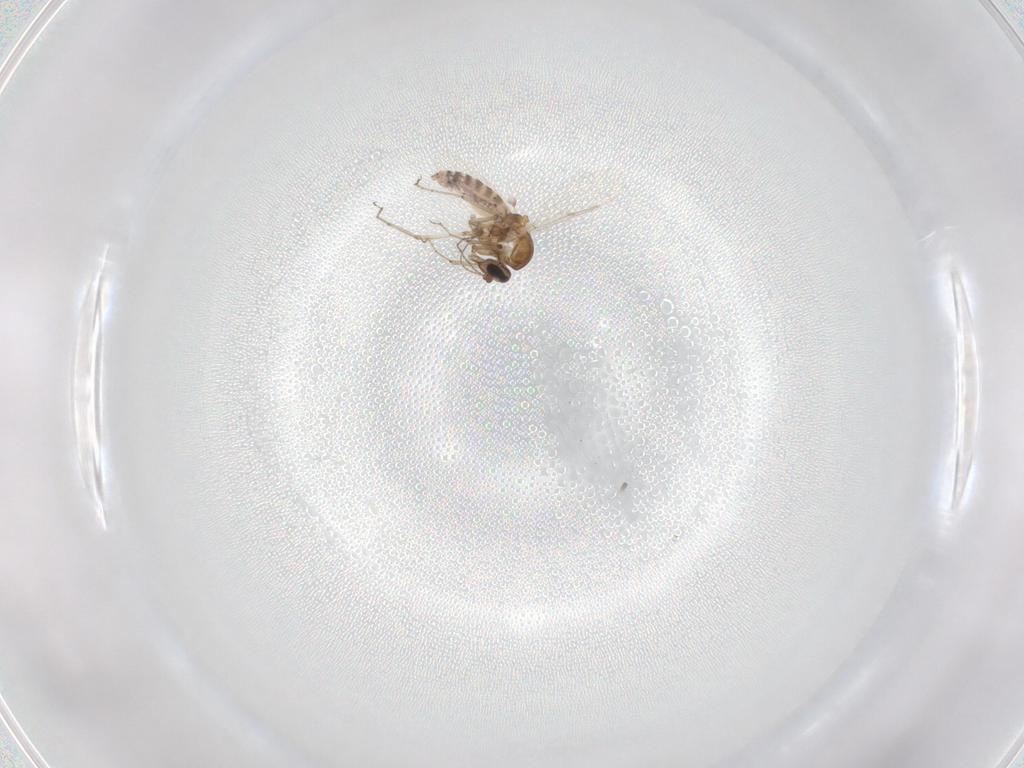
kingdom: Animalia
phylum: Arthropoda
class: Insecta
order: Diptera
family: Ceratopogonidae
